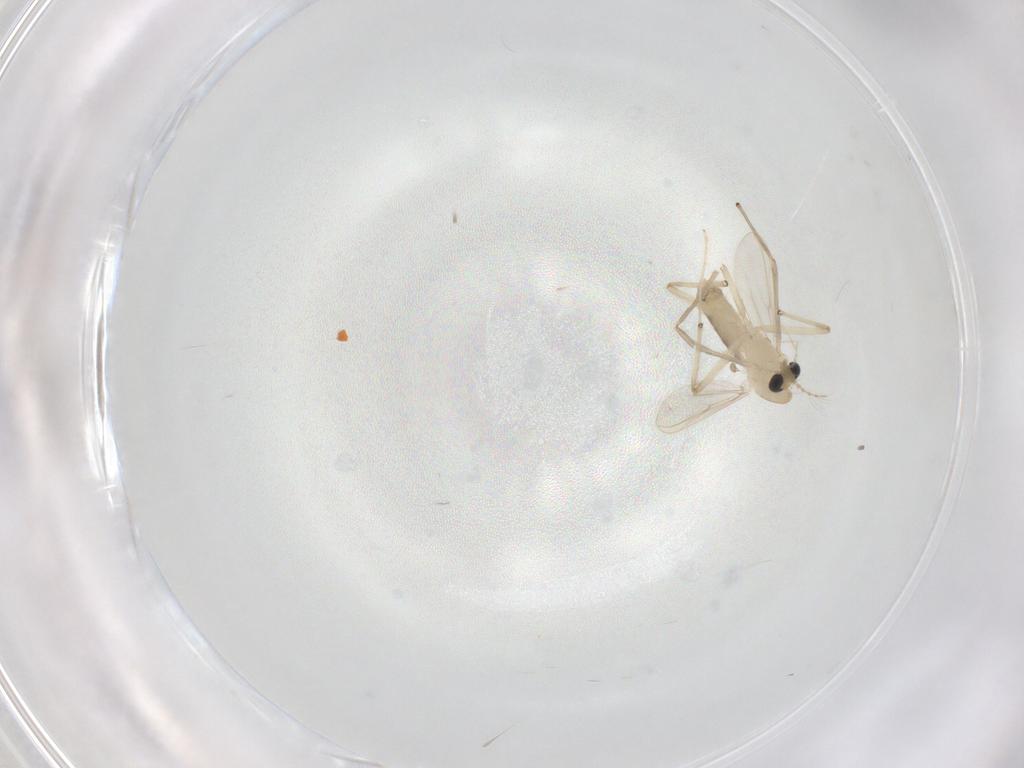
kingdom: Animalia
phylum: Arthropoda
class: Insecta
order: Diptera
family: Chironomidae
